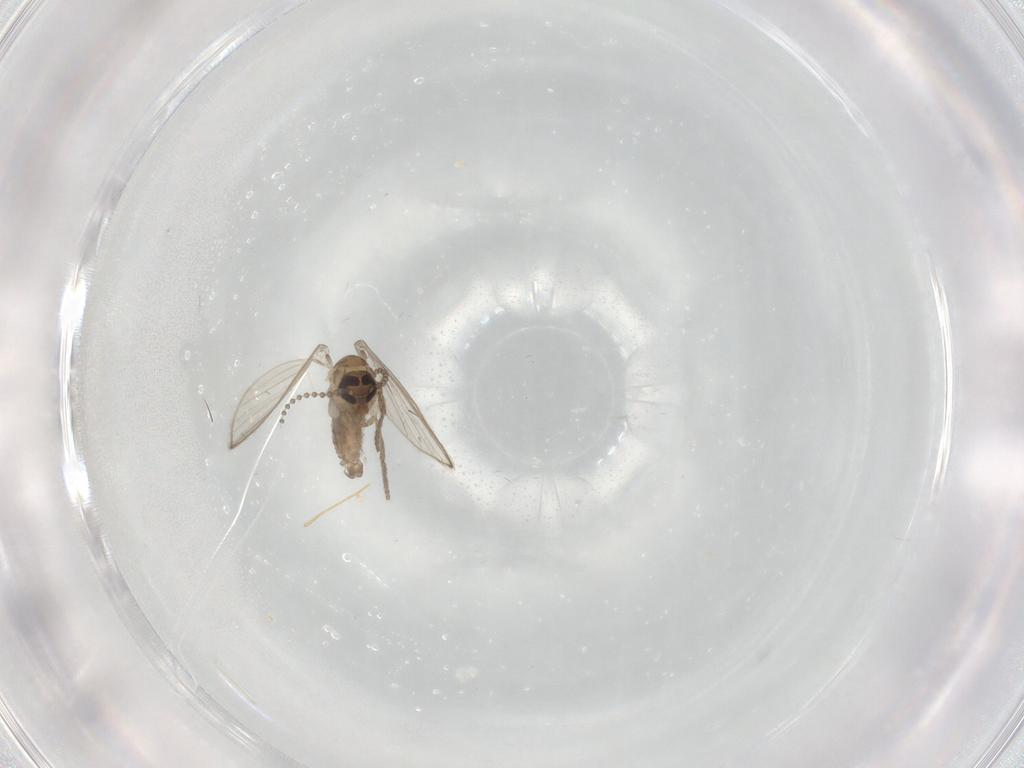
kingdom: Animalia
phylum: Arthropoda
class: Insecta
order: Diptera
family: Psychodidae
